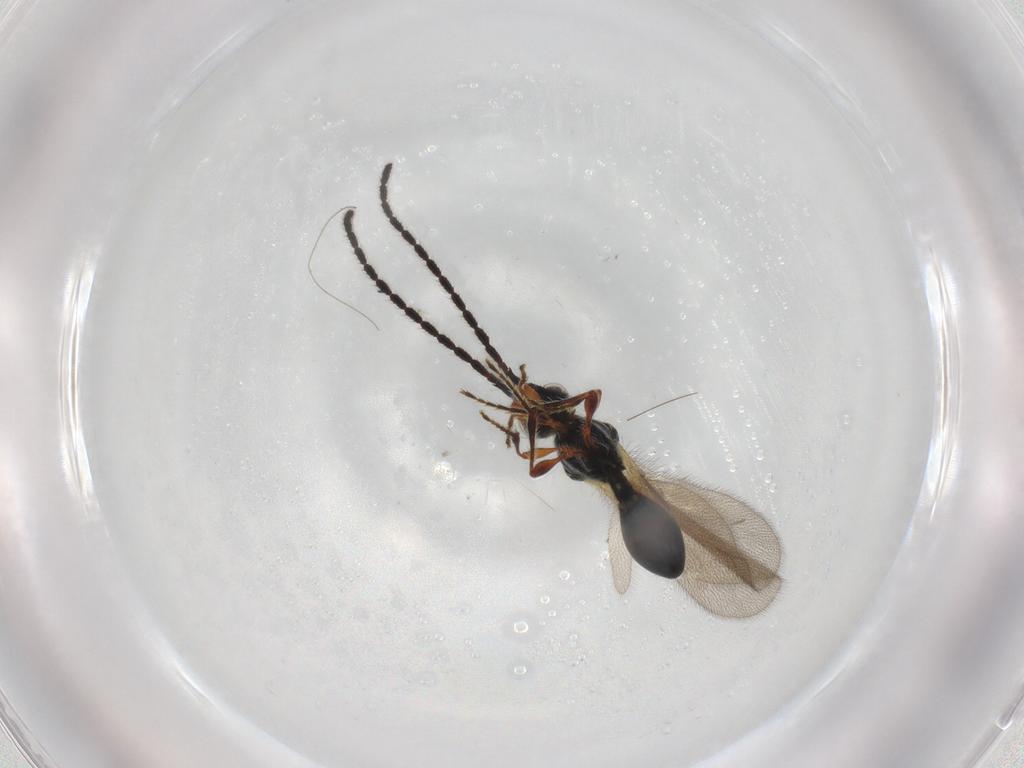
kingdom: Animalia
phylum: Arthropoda
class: Insecta
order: Hymenoptera
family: Diapriidae
